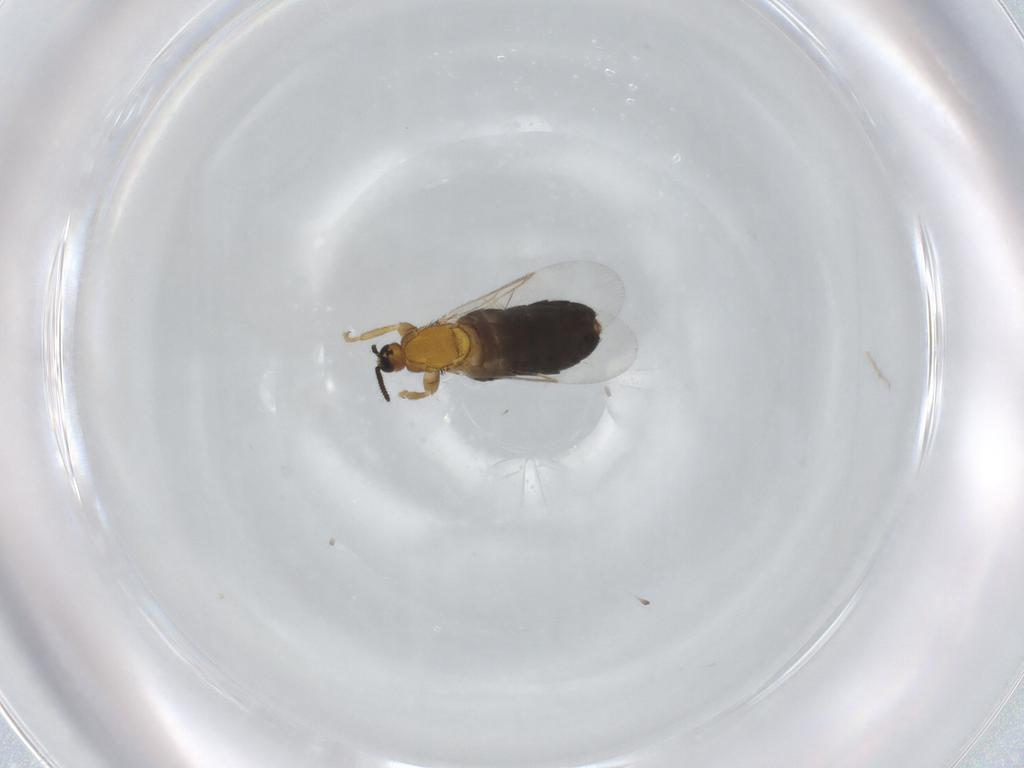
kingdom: Animalia
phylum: Arthropoda
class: Insecta
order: Diptera
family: Scatopsidae
